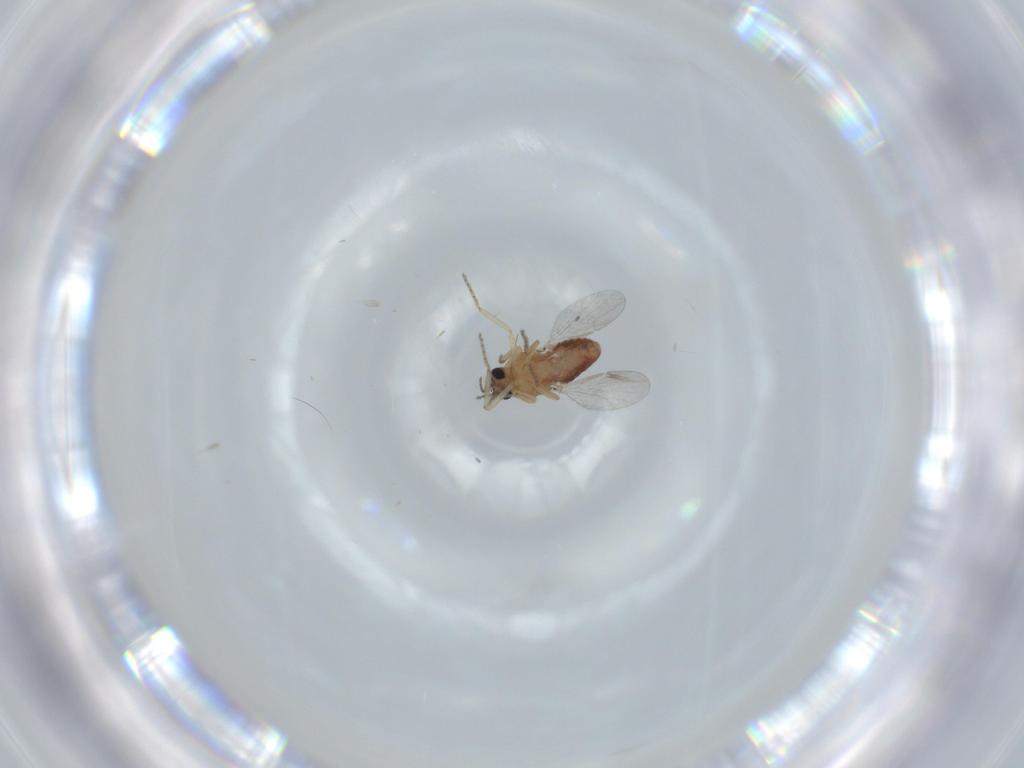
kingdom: Animalia
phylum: Arthropoda
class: Insecta
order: Diptera
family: Ceratopogonidae
